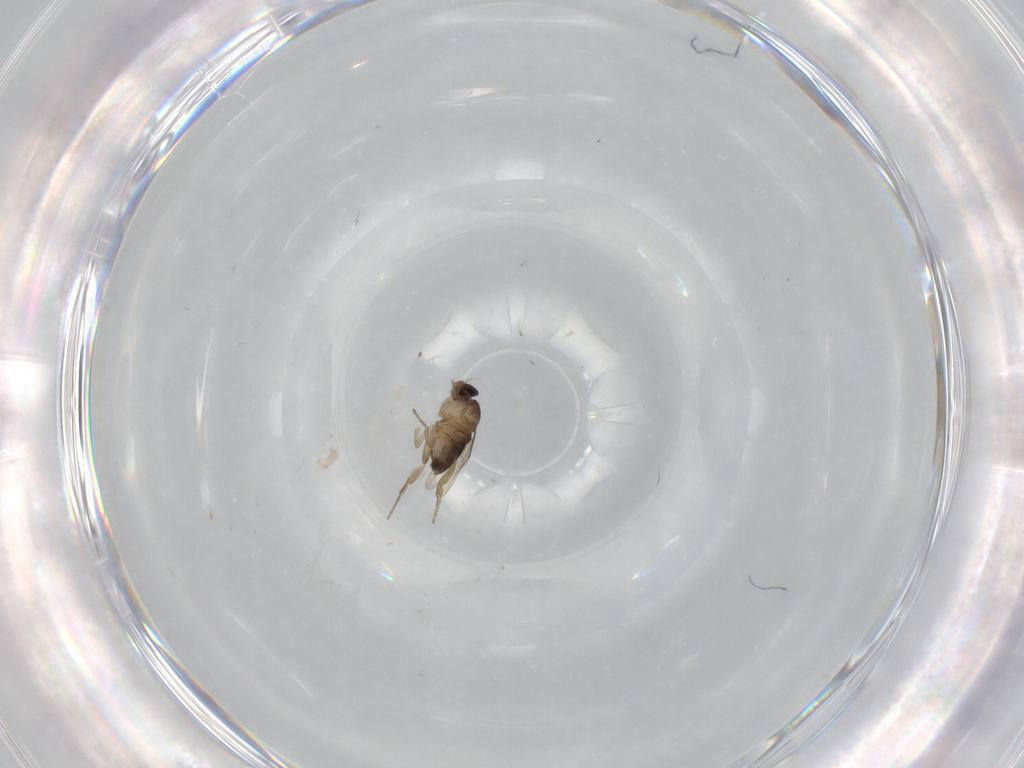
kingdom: Animalia
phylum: Arthropoda
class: Insecta
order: Diptera
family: Phoridae
